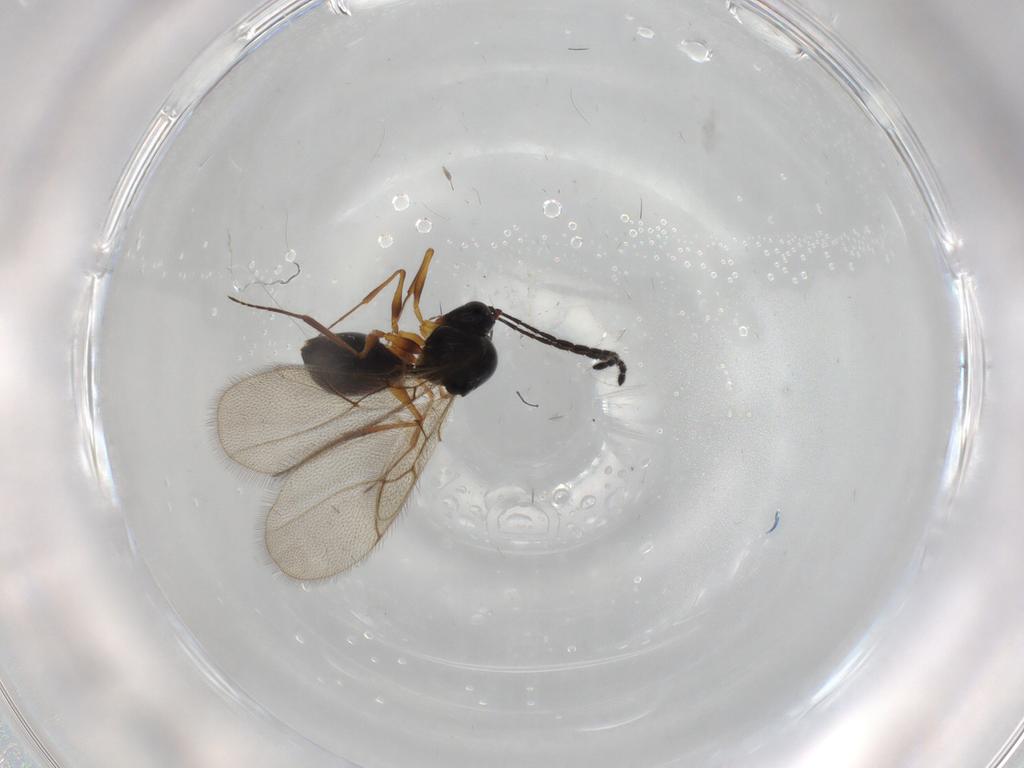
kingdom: Animalia
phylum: Arthropoda
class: Insecta
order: Hymenoptera
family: Figitidae
